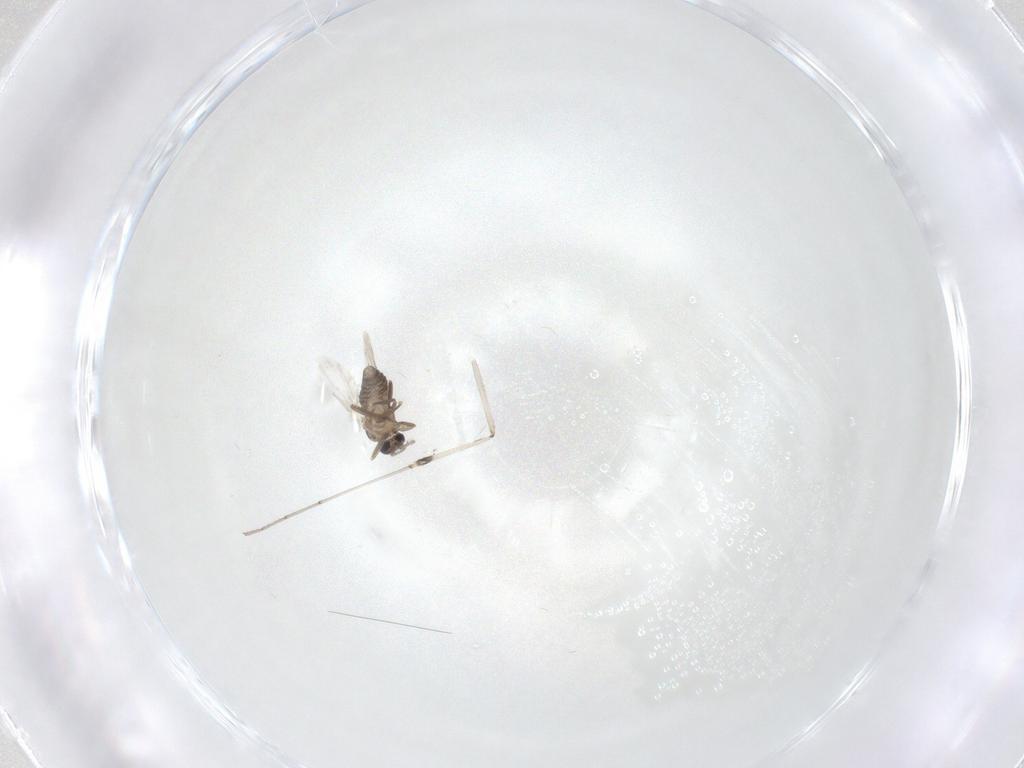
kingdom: Animalia
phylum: Arthropoda
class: Insecta
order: Diptera
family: Ceratopogonidae
